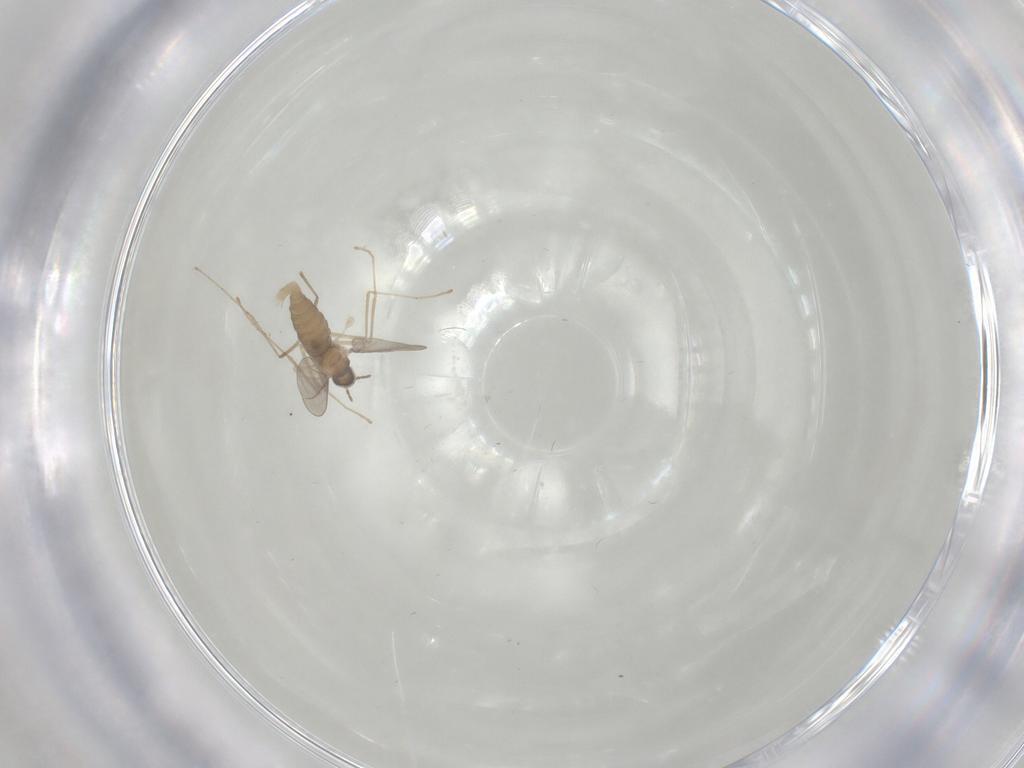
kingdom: Animalia
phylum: Arthropoda
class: Insecta
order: Diptera
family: Cecidomyiidae
